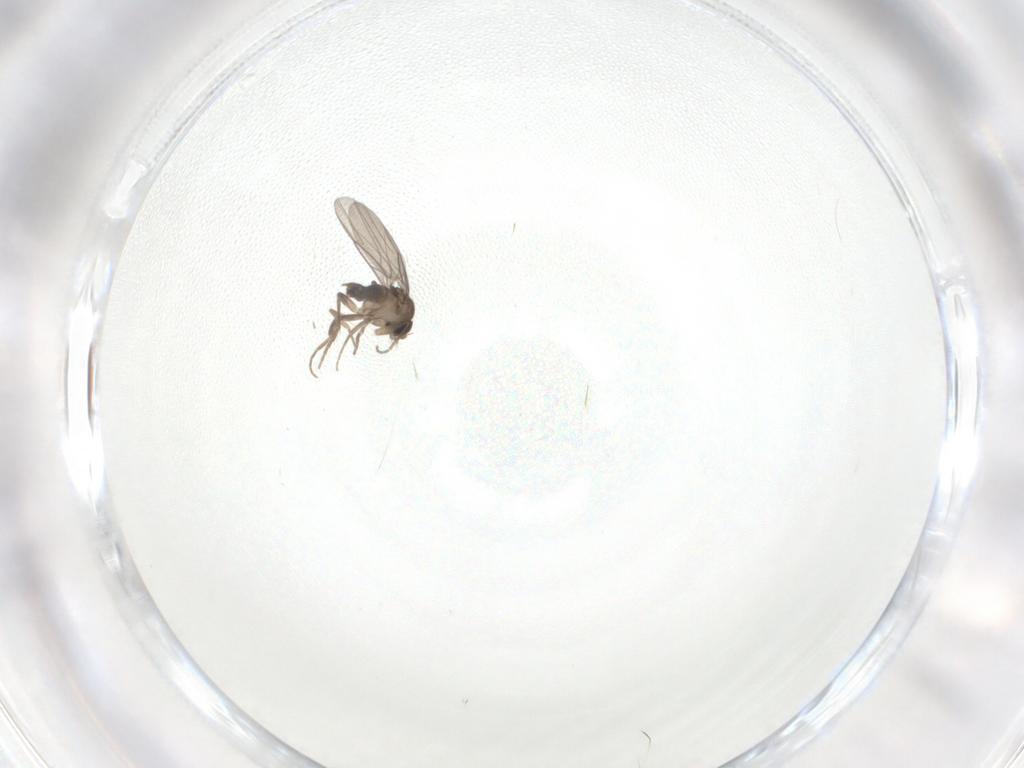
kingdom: Animalia
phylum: Arthropoda
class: Insecta
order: Diptera
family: Phoridae
